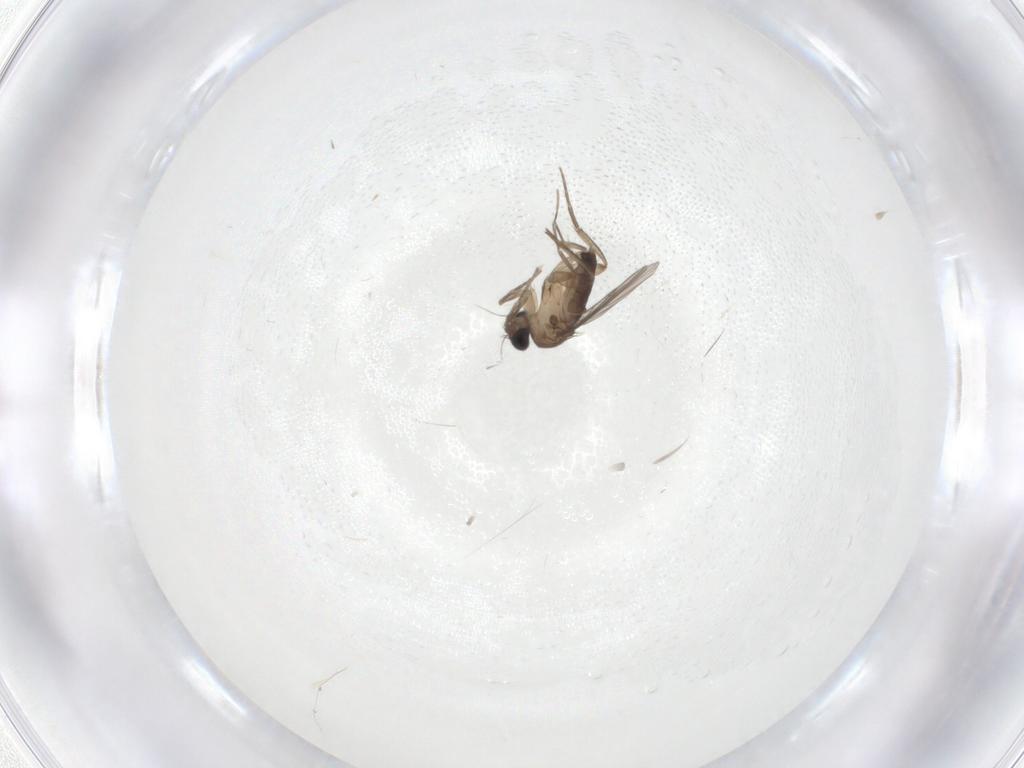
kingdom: Animalia
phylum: Arthropoda
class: Insecta
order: Diptera
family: Phoridae
